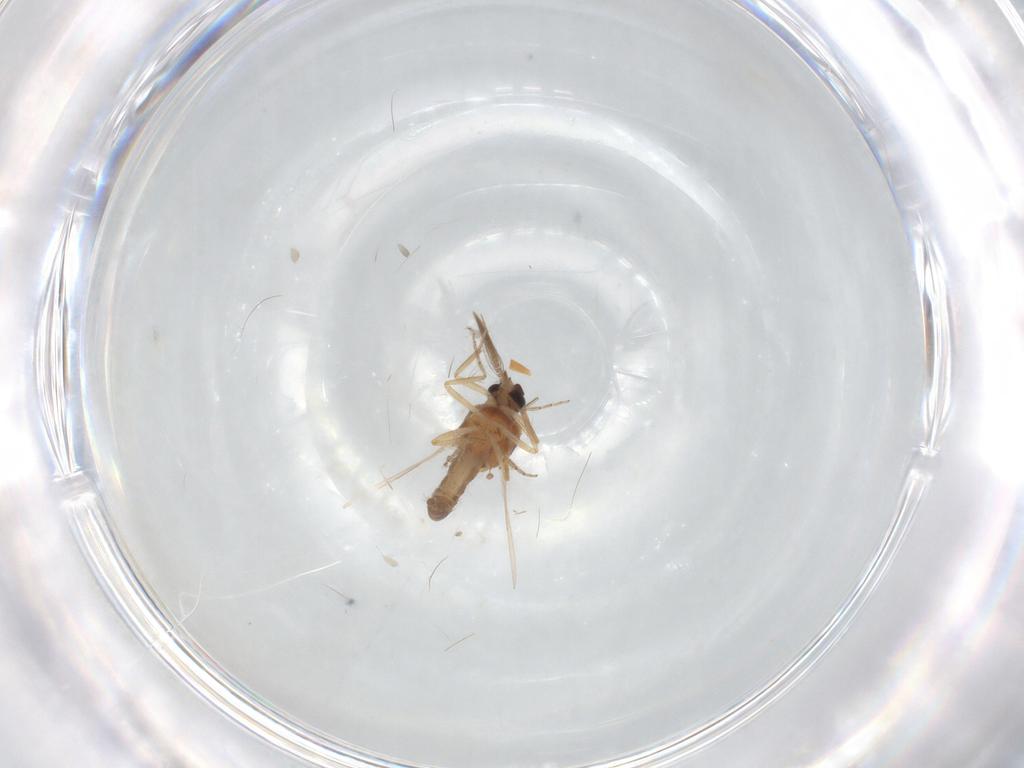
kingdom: Animalia
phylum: Arthropoda
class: Insecta
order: Diptera
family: Ceratopogonidae
